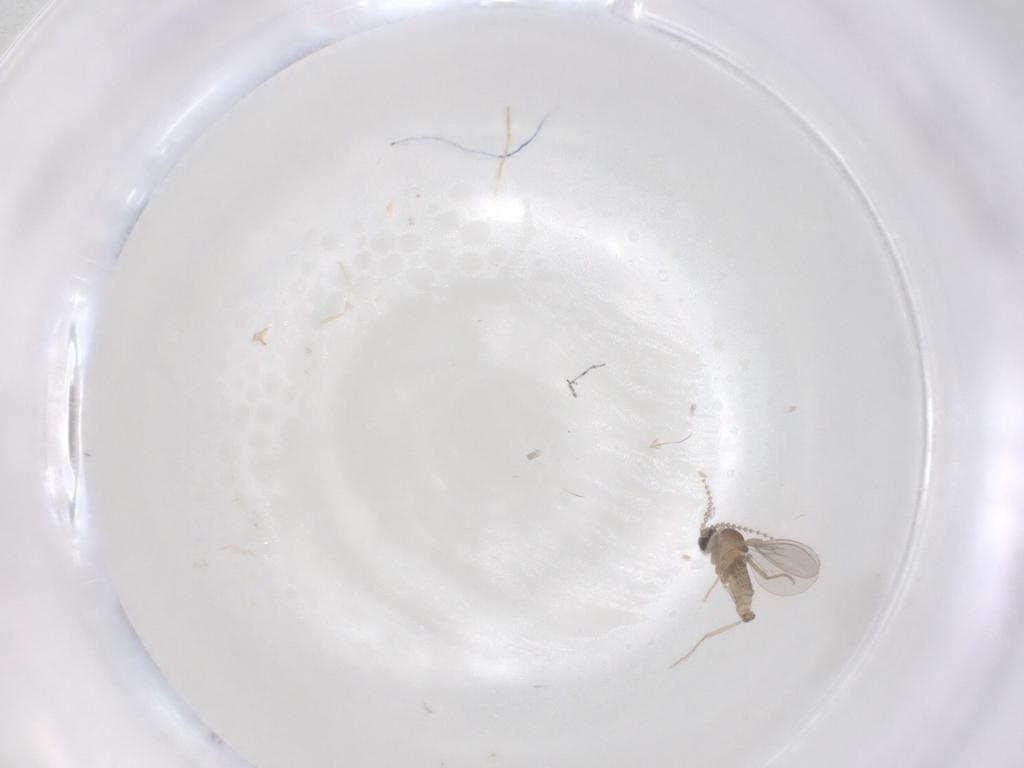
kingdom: Animalia
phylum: Arthropoda
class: Insecta
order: Diptera
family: Cecidomyiidae
